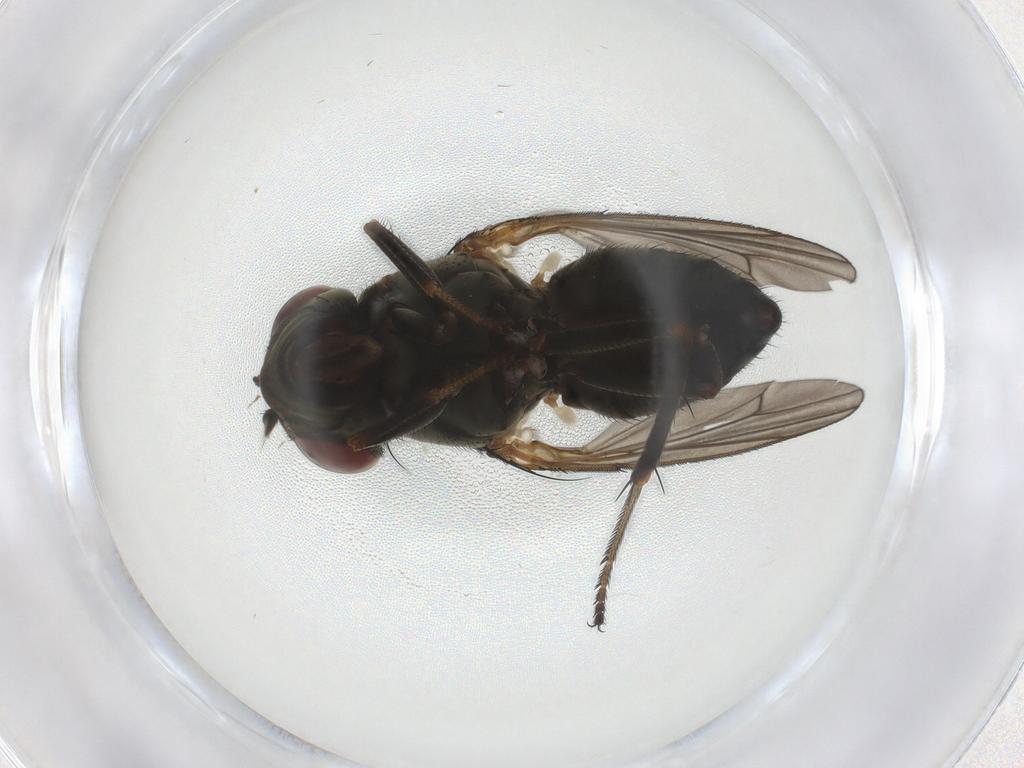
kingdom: Animalia
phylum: Arthropoda
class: Insecta
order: Diptera
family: Ephydridae
